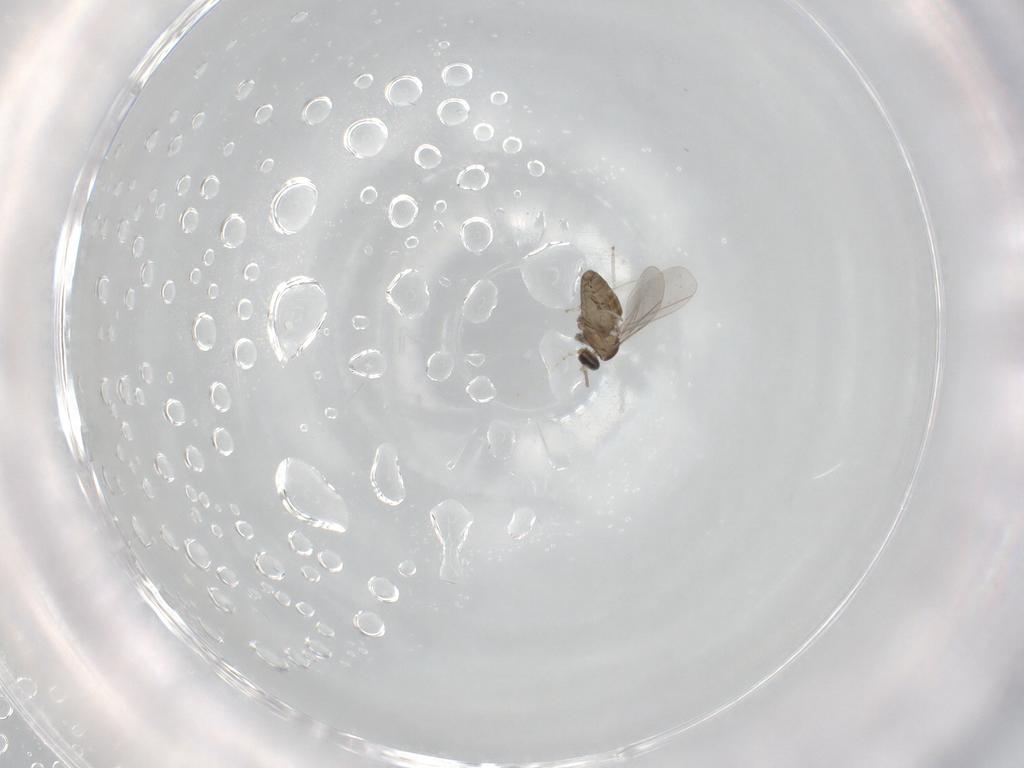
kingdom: Animalia
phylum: Arthropoda
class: Insecta
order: Diptera
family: Cecidomyiidae
